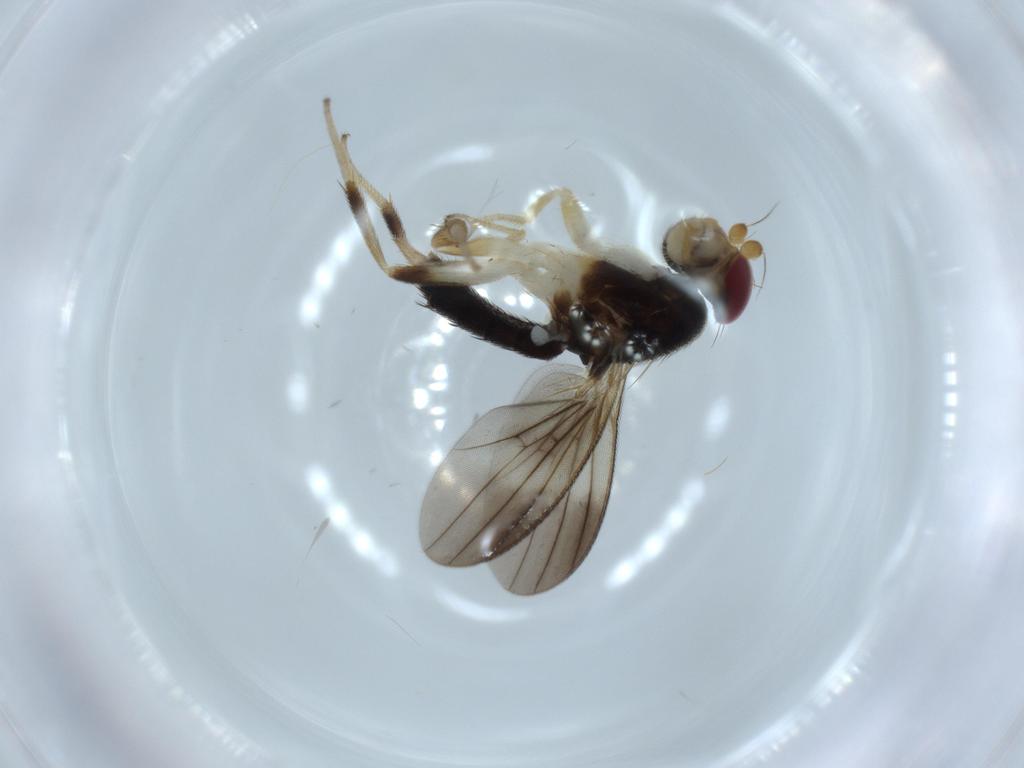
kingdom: Animalia
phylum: Arthropoda
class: Insecta
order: Diptera
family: Clusiidae
